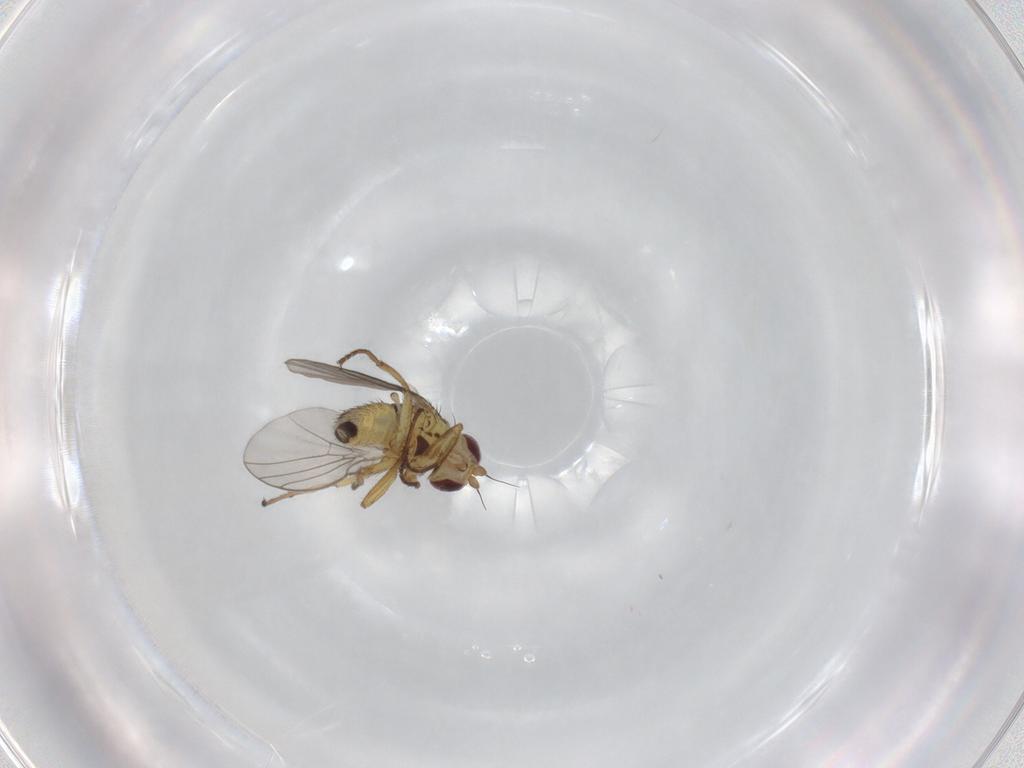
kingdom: Animalia
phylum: Arthropoda
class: Insecta
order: Diptera
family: Agromyzidae
